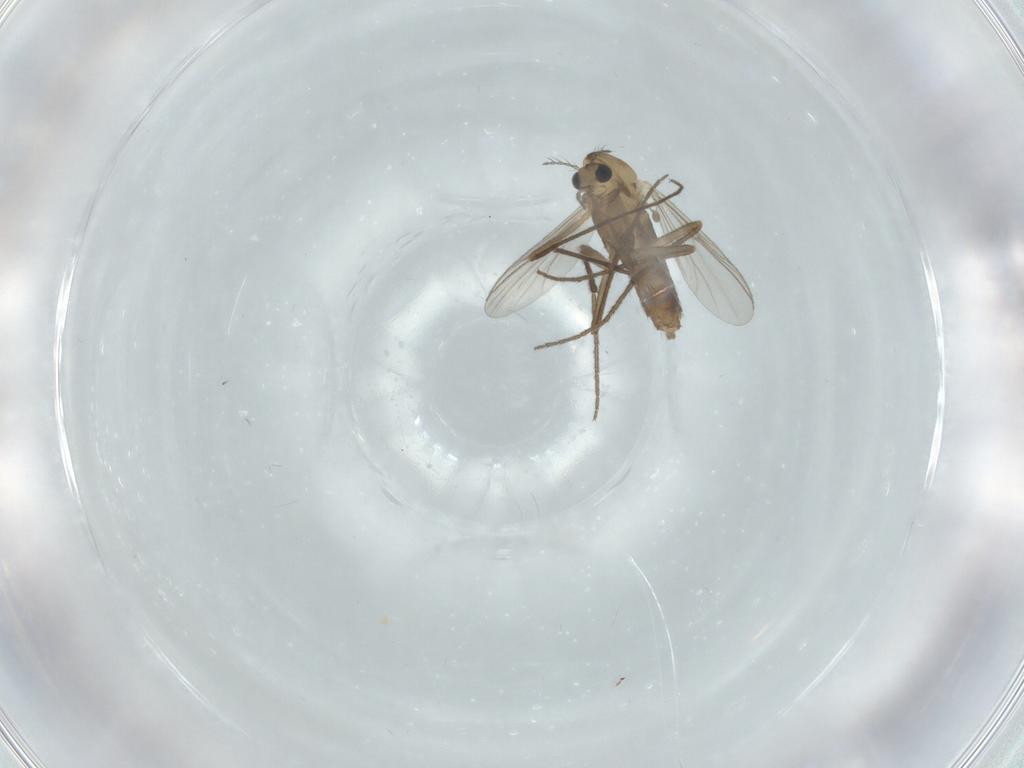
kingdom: Animalia
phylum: Arthropoda
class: Insecta
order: Diptera
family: Chironomidae
